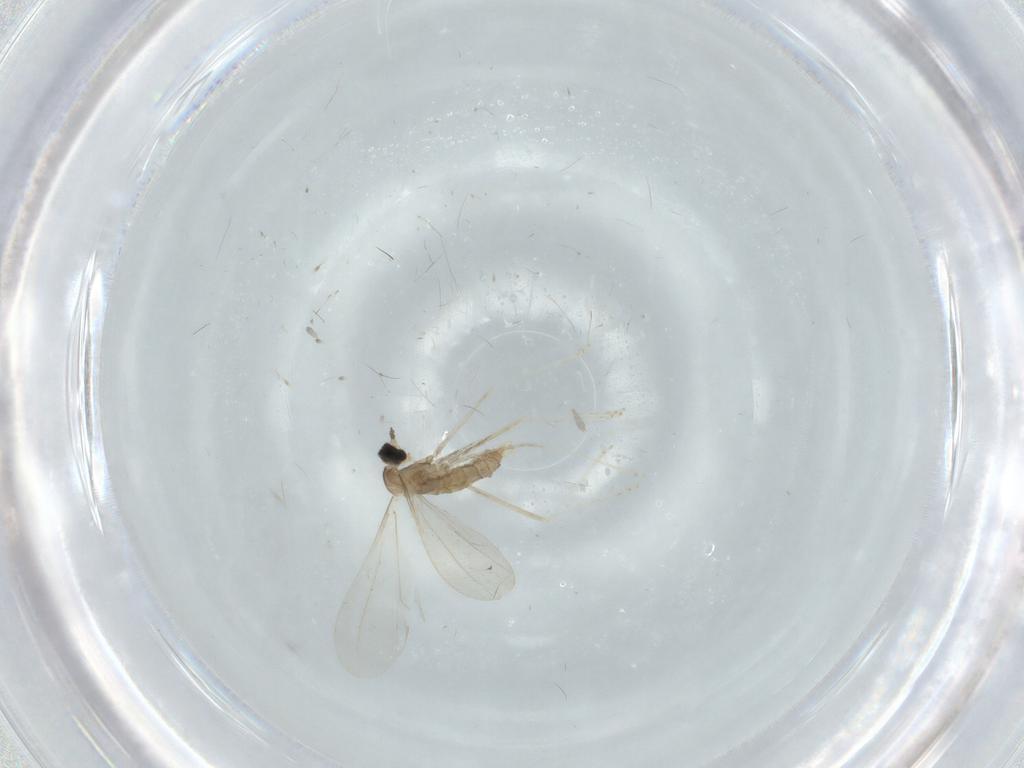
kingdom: Animalia
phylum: Arthropoda
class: Insecta
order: Diptera
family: Cecidomyiidae
